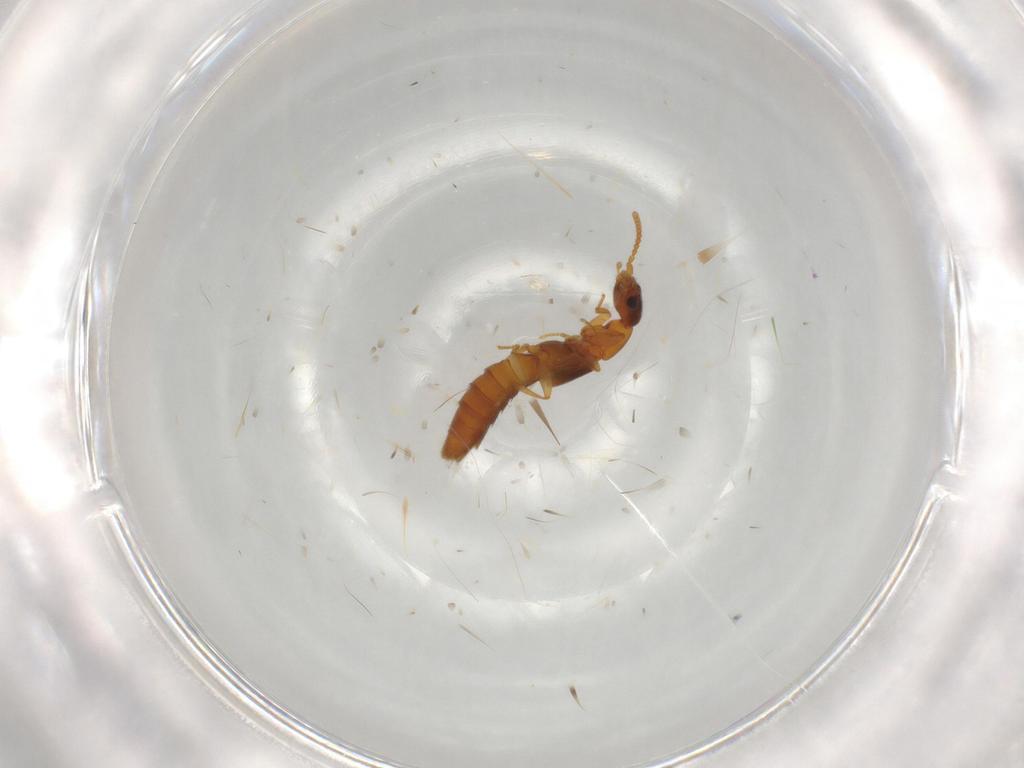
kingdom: Animalia
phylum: Arthropoda
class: Insecta
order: Coleoptera
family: Staphylinidae
